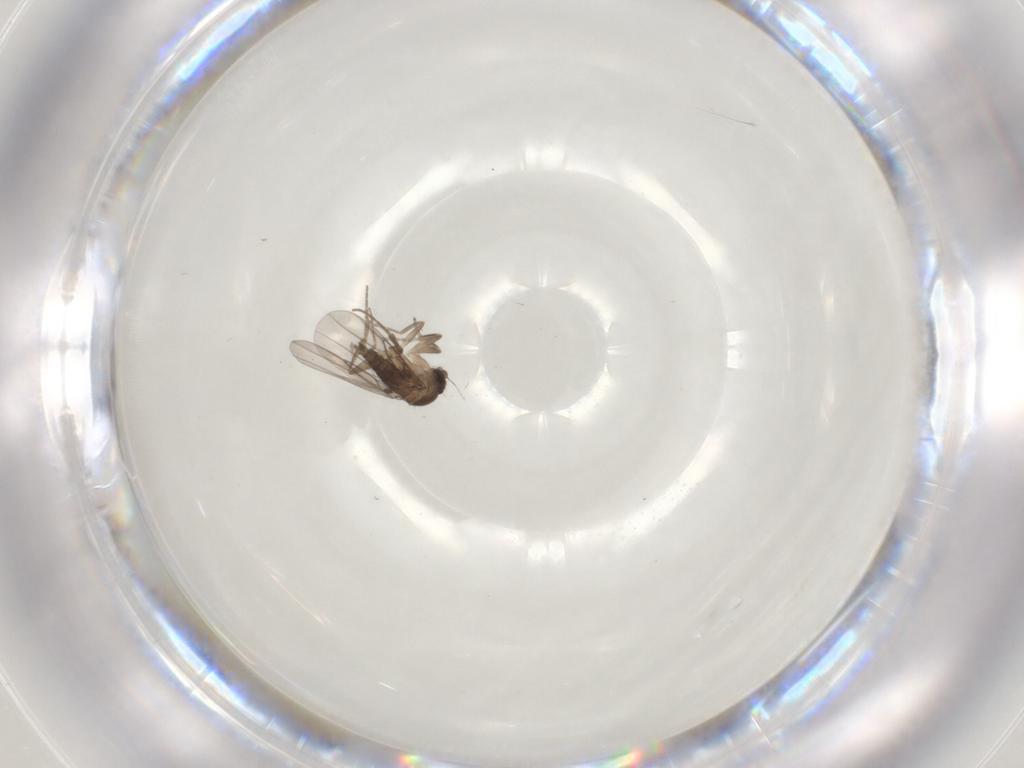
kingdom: Animalia
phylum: Arthropoda
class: Insecta
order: Diptera
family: Phoridae
